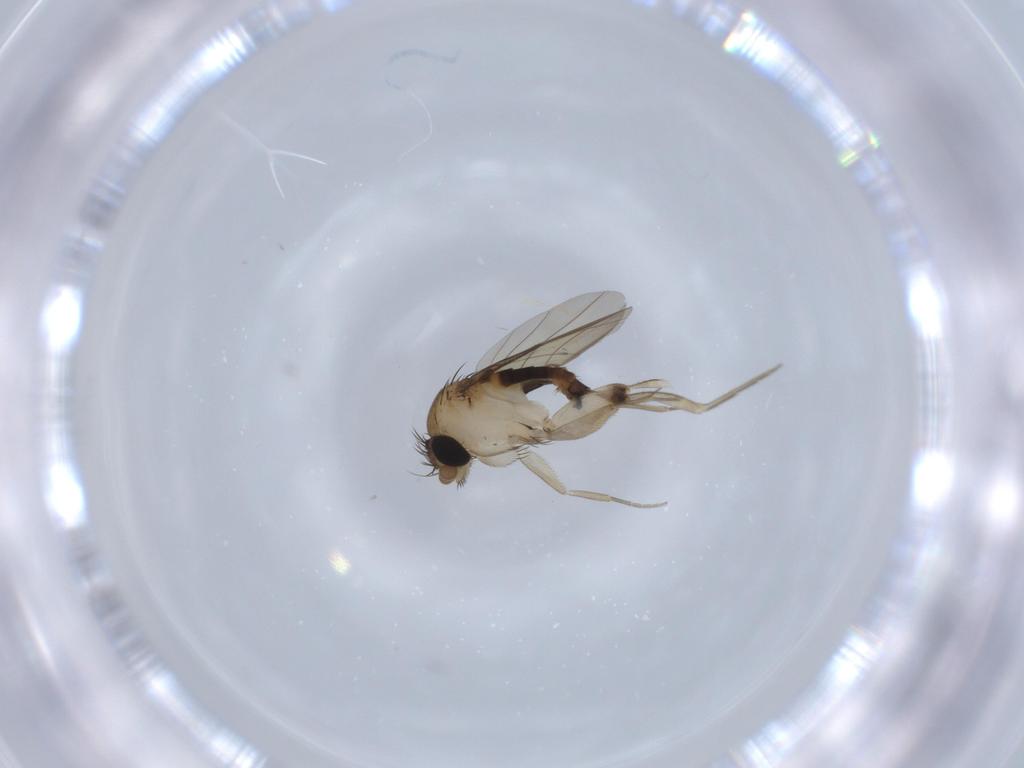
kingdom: Animalia
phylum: Arthropoda
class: Insecta
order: Diptera
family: Phoridae
